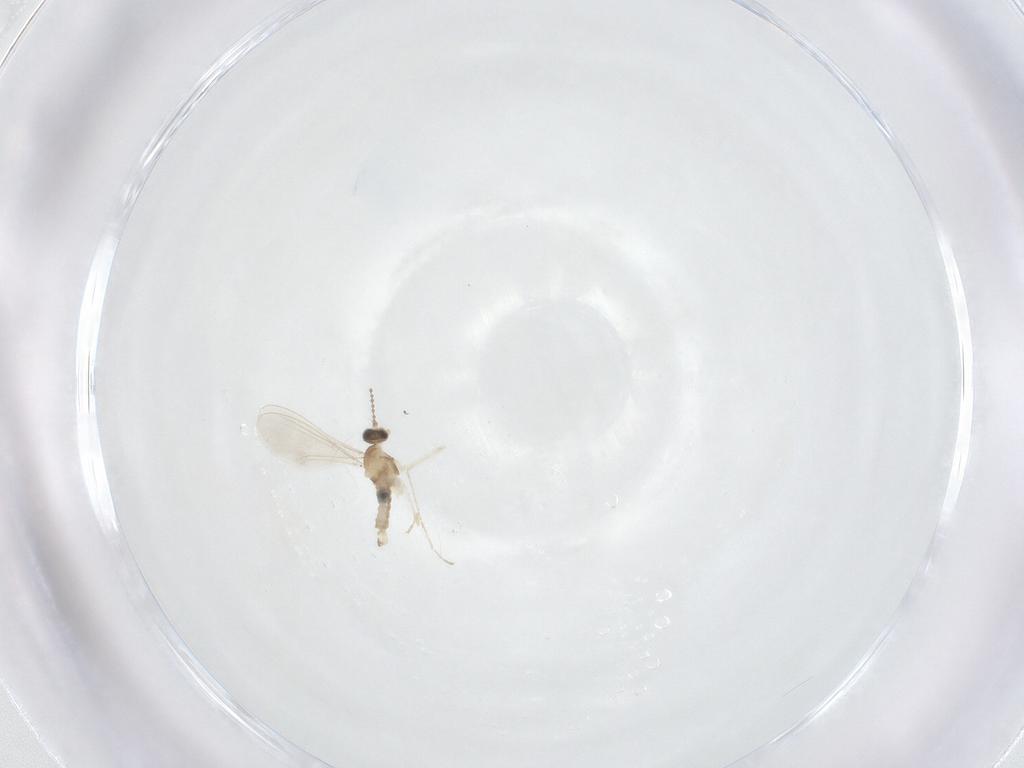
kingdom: Animalia
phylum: Arthropoda
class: Insecta
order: Diptera
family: Cecidomyiidae
